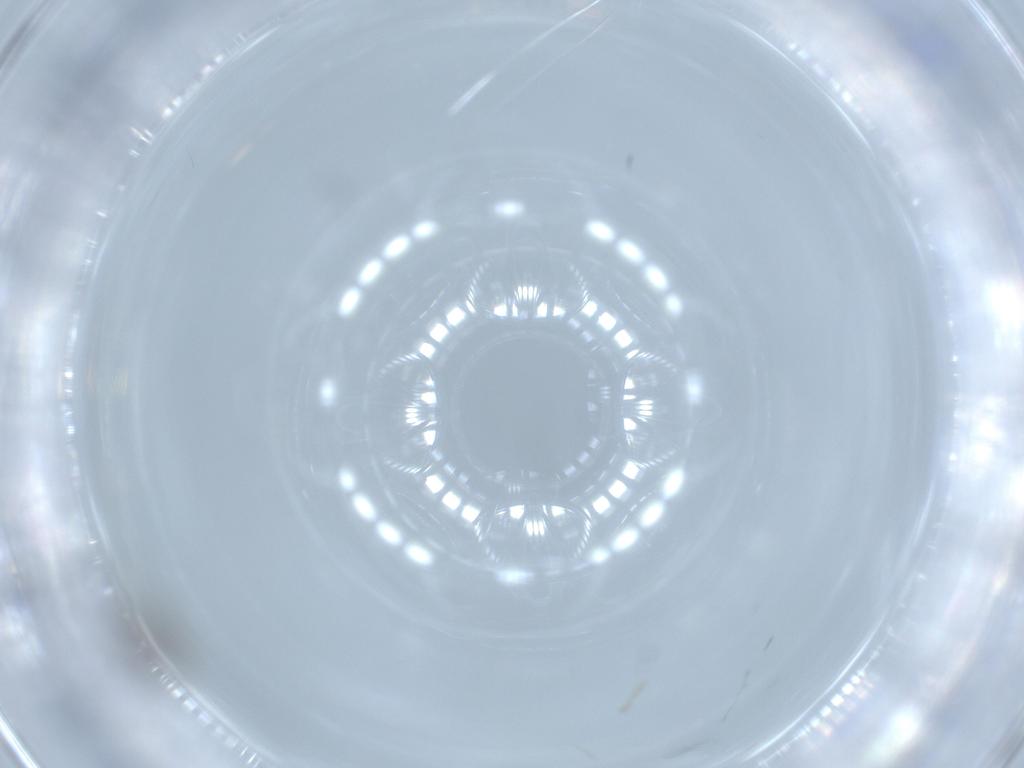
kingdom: Animalia
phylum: Arthropoda
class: Insecta
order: Diptera
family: Cecidomyiidae
